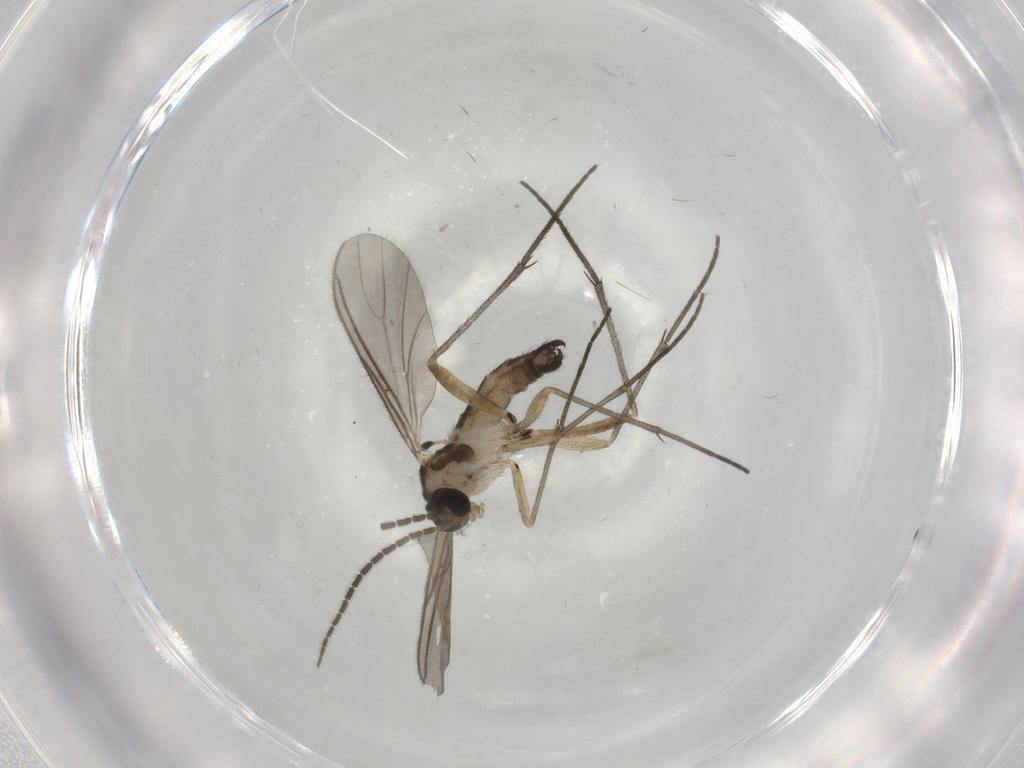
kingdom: Animalia
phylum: Arthropoda
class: Insecta
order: Diptera
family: Sciaridae
